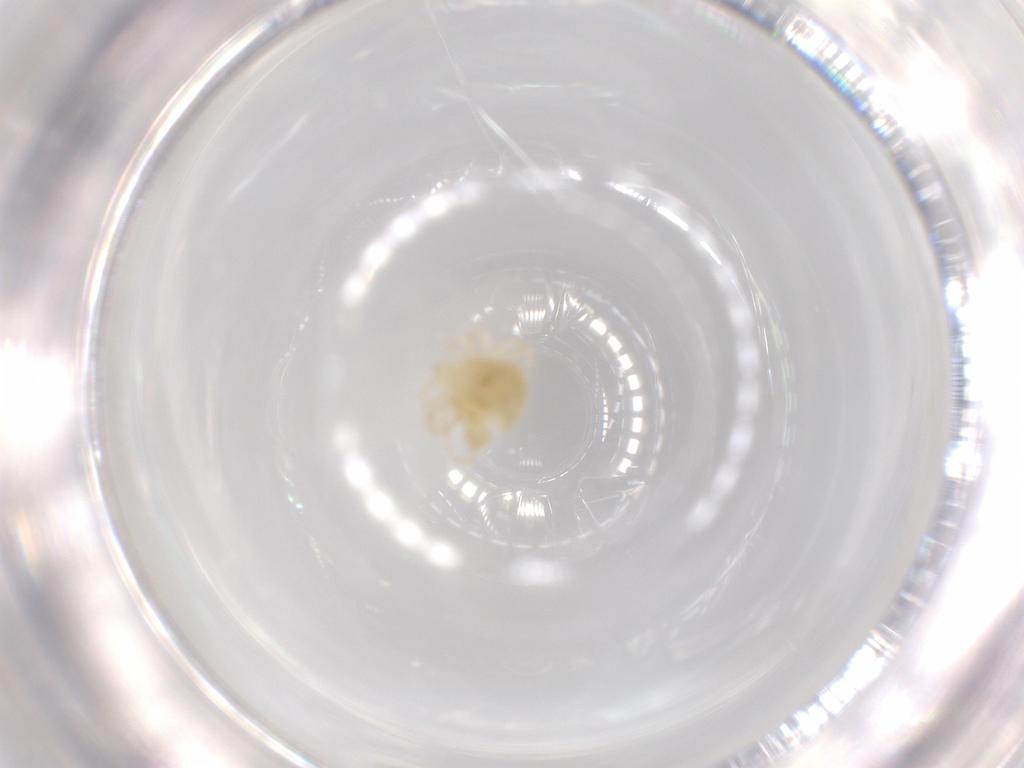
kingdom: Animalia
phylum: Arthropoda
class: Arachnida
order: Trombidiformes
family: Anystidae
